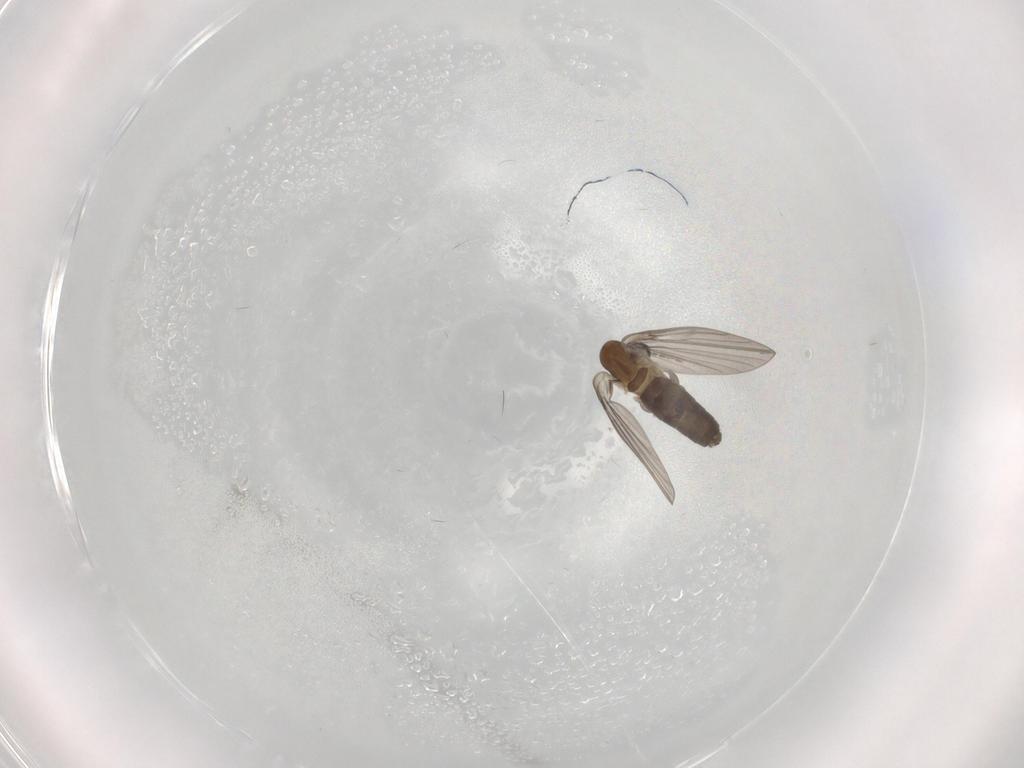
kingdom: Animalia
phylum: Arthropoda
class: Insecta
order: Diptera
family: Psychodidae
